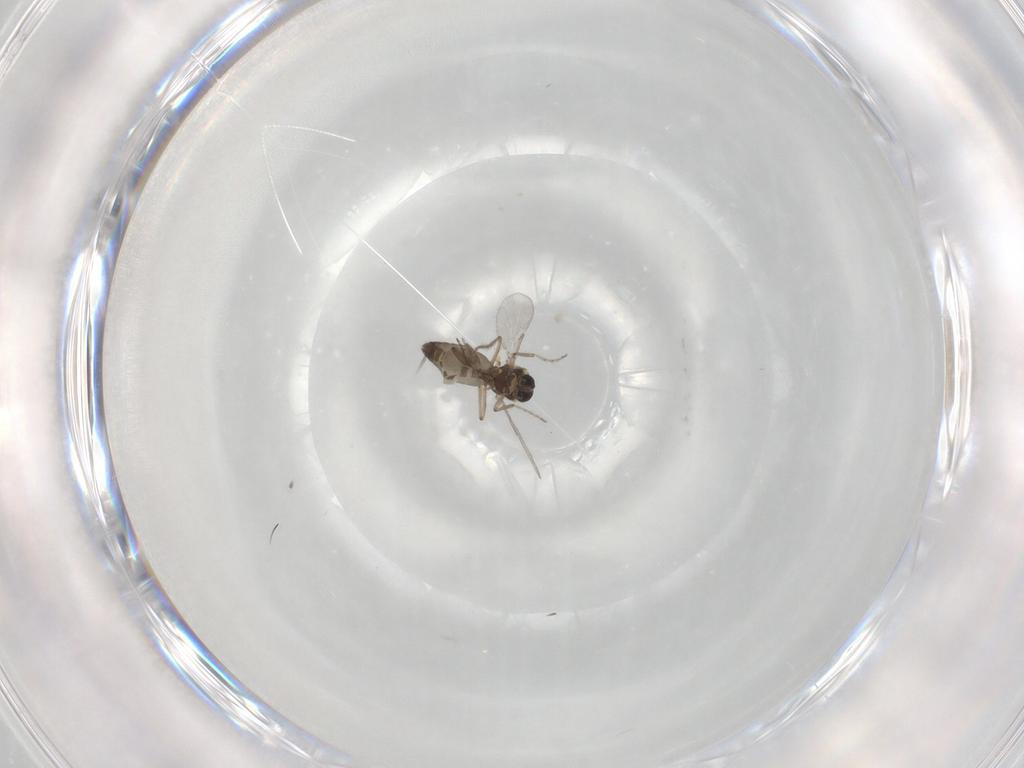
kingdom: Animalia
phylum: Arthropoda
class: Insecta
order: Diptera
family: Ceratopogonidae
